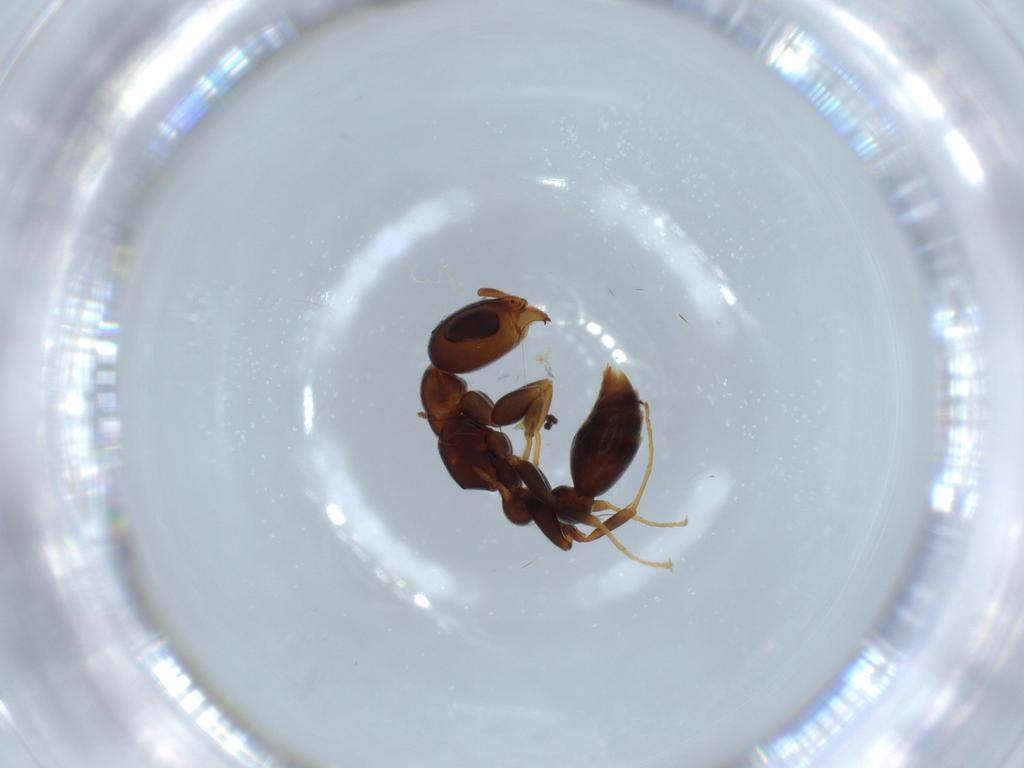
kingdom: Animalia
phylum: Arthropoda
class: Insecta
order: Hymenoptera
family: Formicidae
